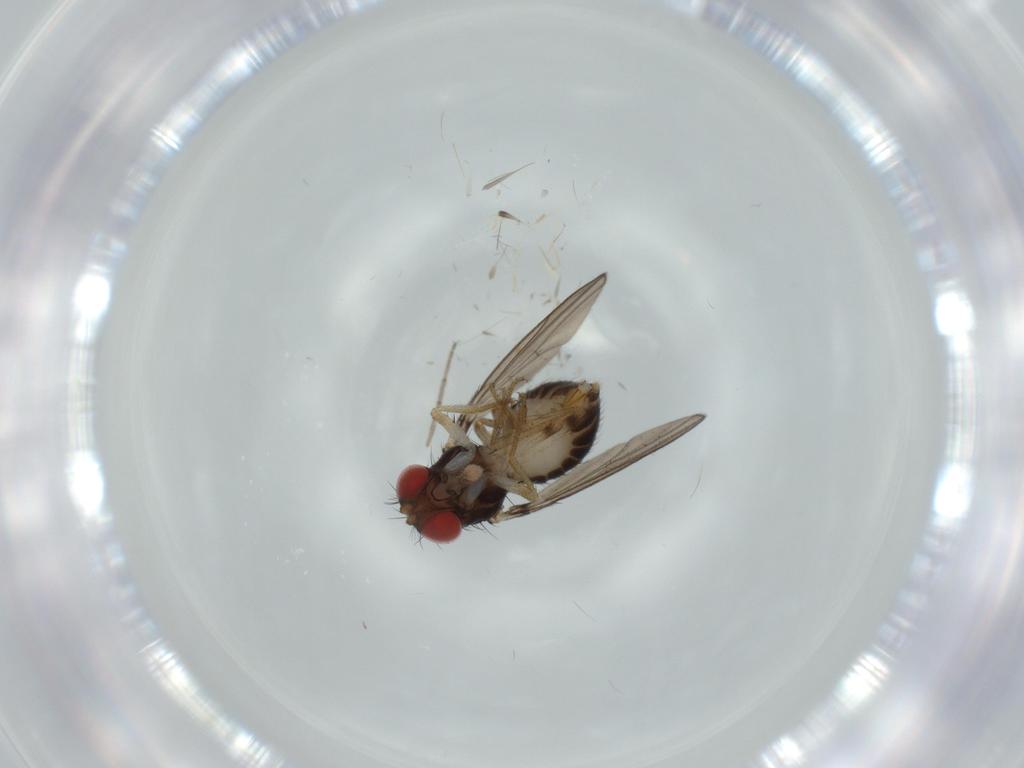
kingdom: Animalia
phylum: Arthropoda
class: Insecta
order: Diptera
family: Drosophilidae
